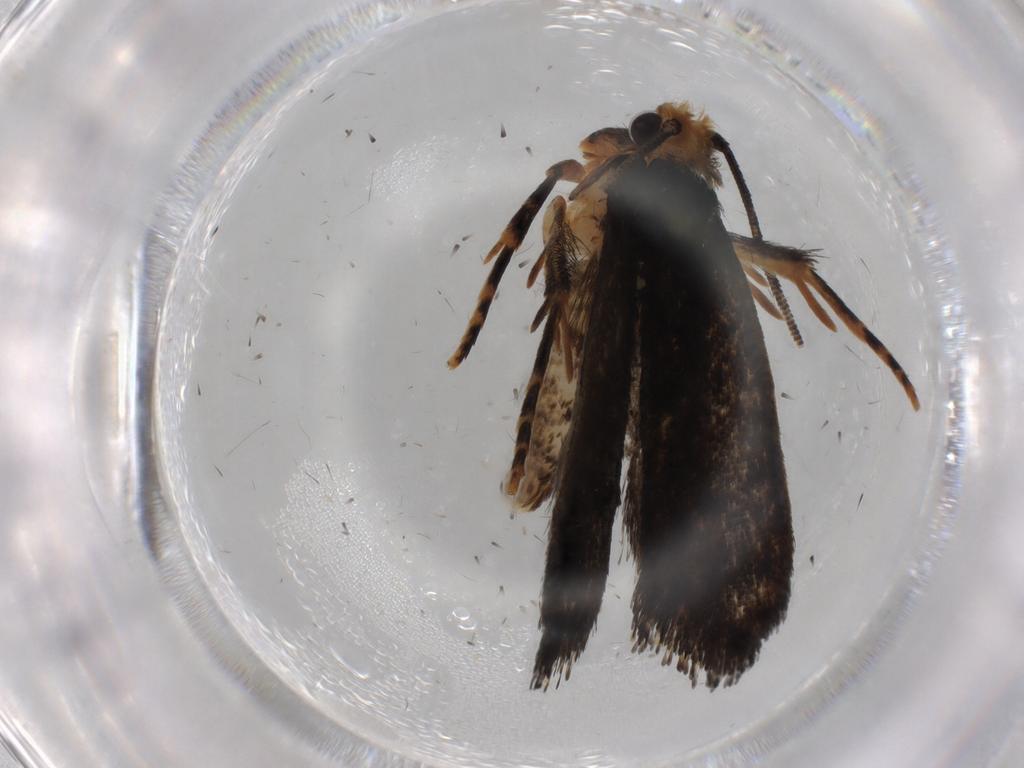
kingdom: Animalia
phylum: Arthropoda
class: Insecta
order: Lepidoptera
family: Tineidae
